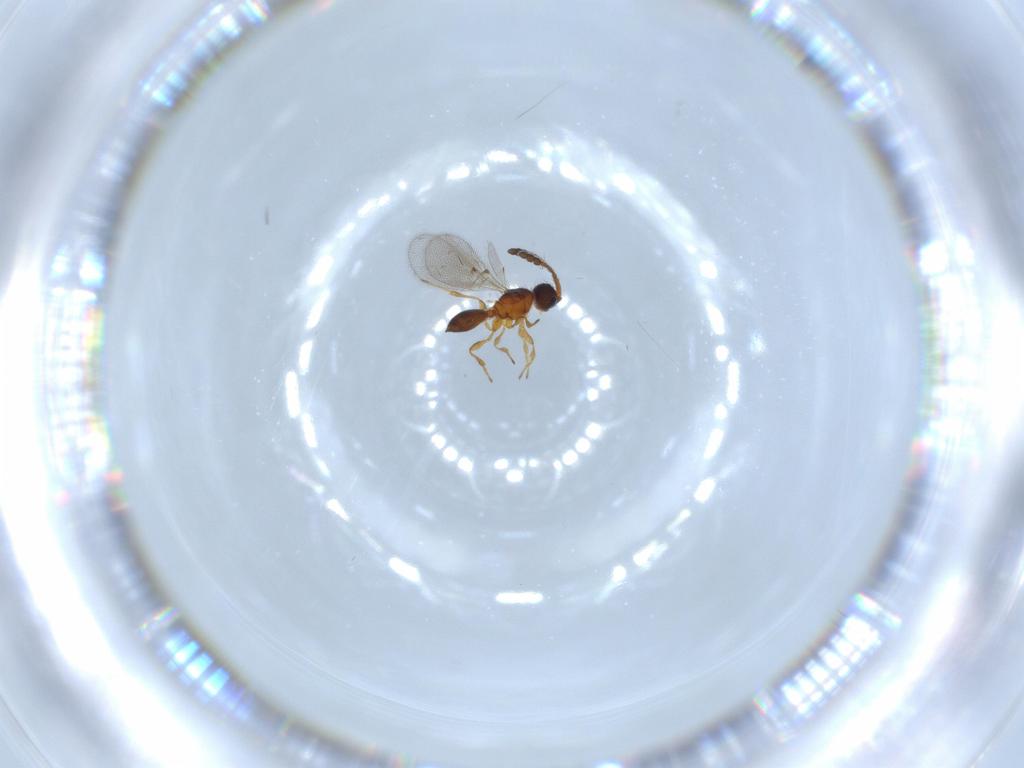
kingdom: Animalia
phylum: Arthropoda
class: Insecta
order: Hymenoptera
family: Diapriidae
